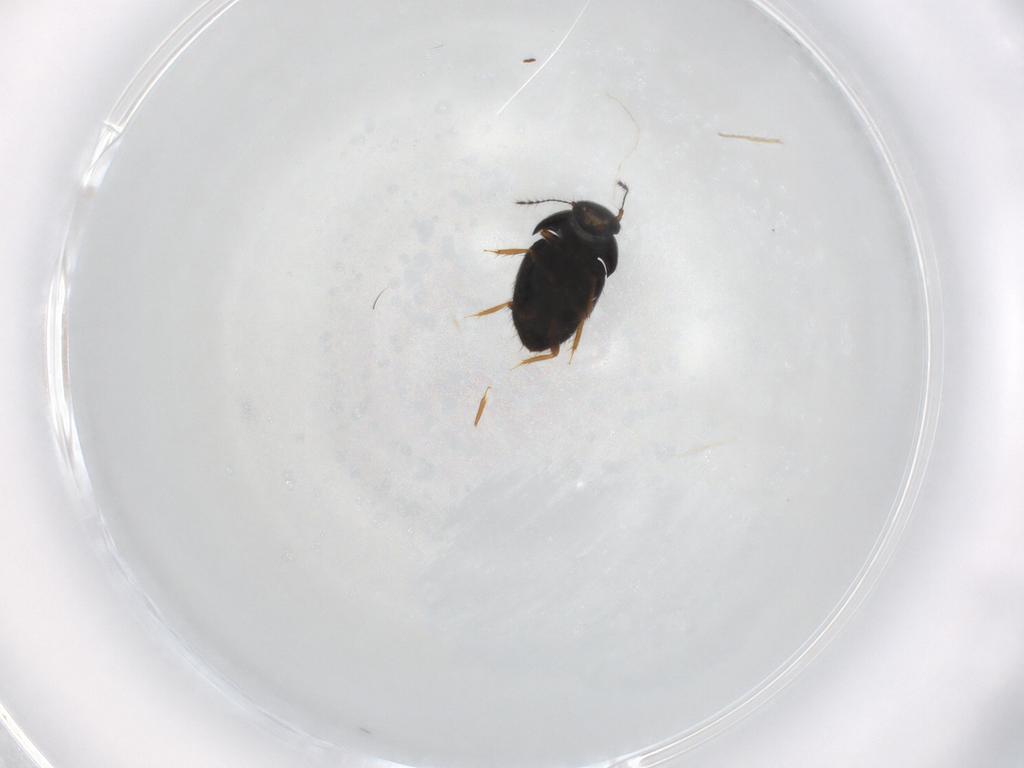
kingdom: Animalia
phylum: Arthropoda
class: Insecta
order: Coleoptera
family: Ptiliidae
